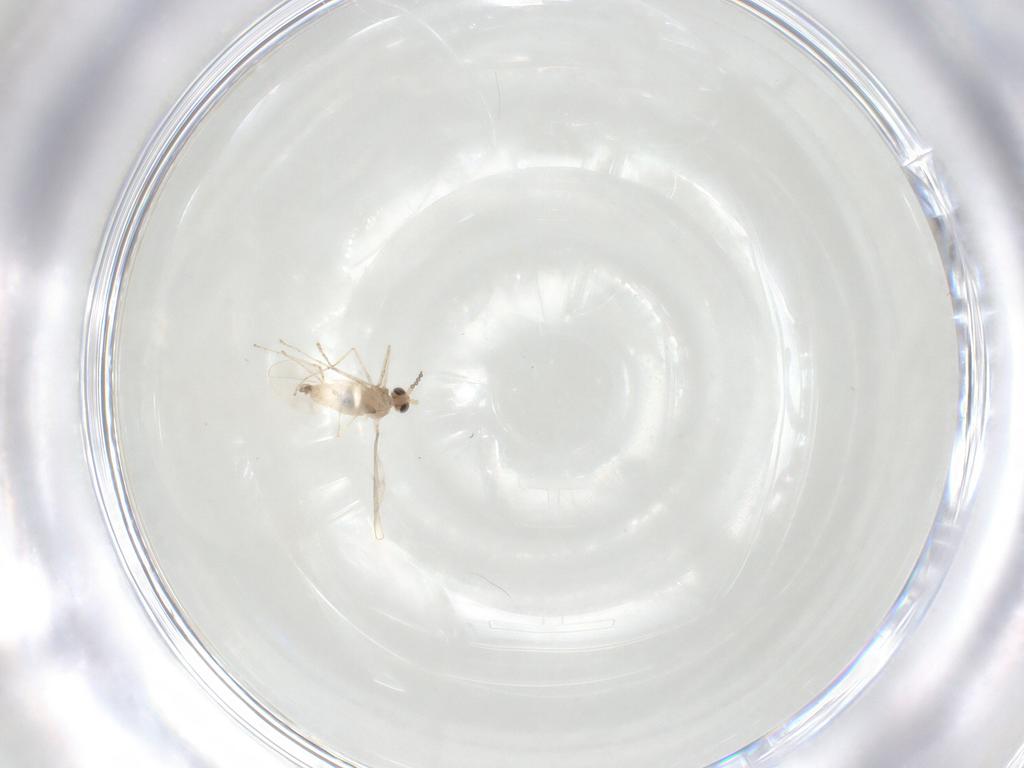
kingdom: Animalia
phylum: Arthropoda
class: Insecta
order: Diptera
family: Cecidomyiidae
